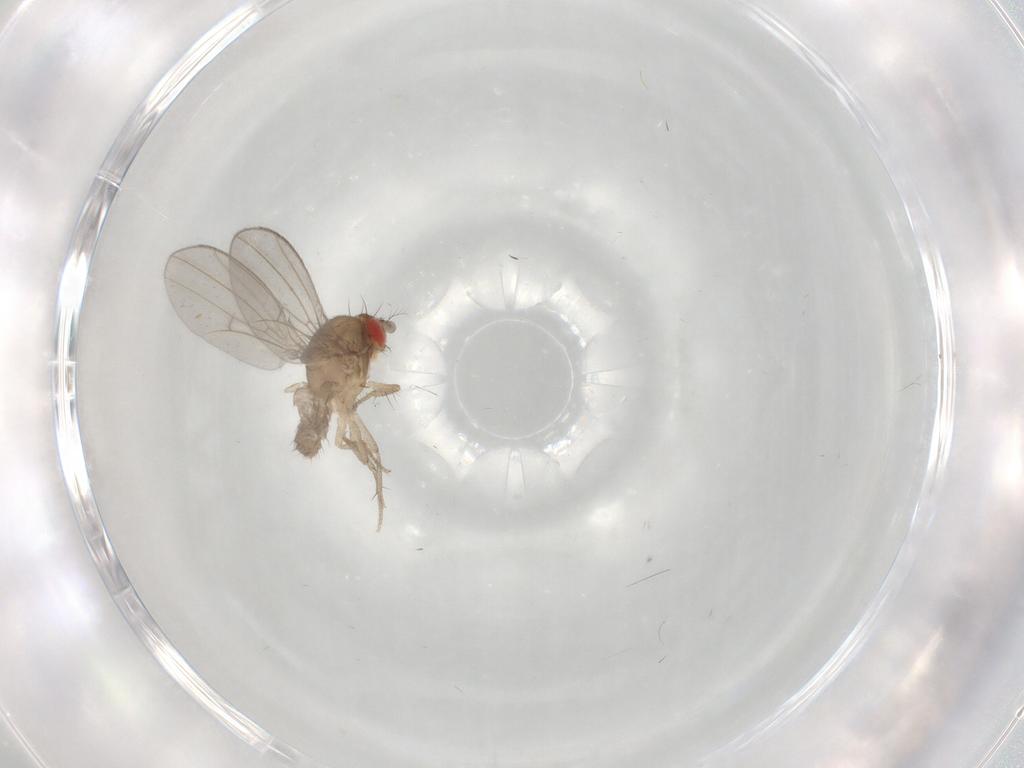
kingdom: Animalia
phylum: Arthropoda
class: Insecta
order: Diptera
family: Drosophilidae
